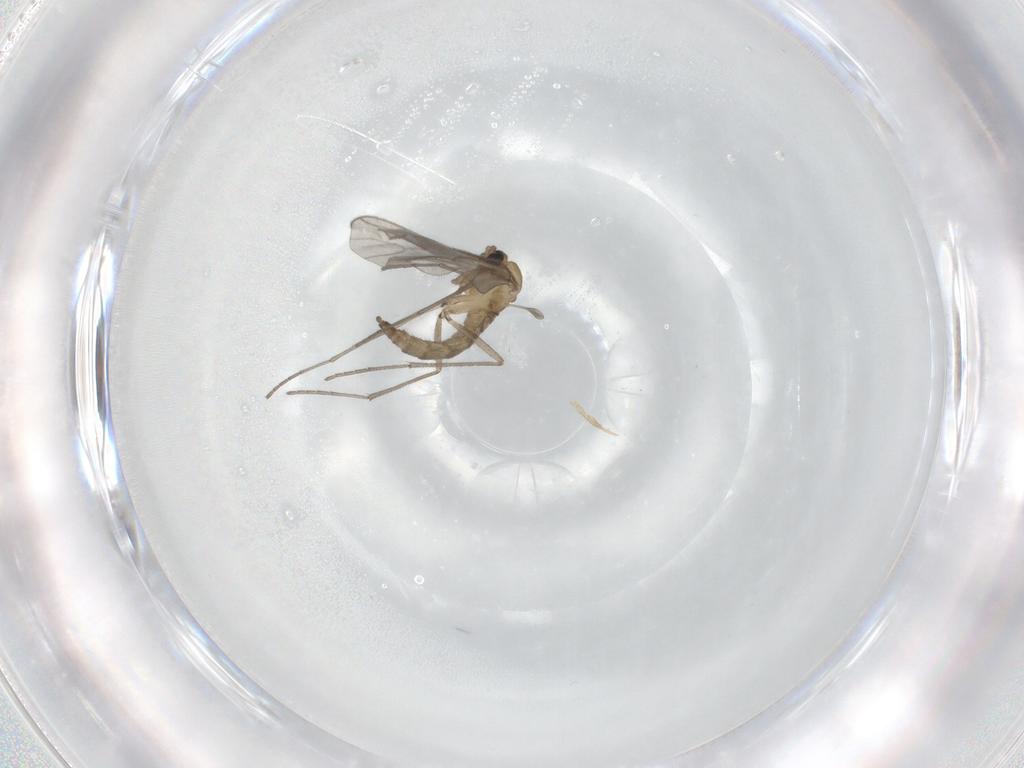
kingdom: Animalia
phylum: Arthropoda
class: Insecta
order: Diptera
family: Sciaridae
